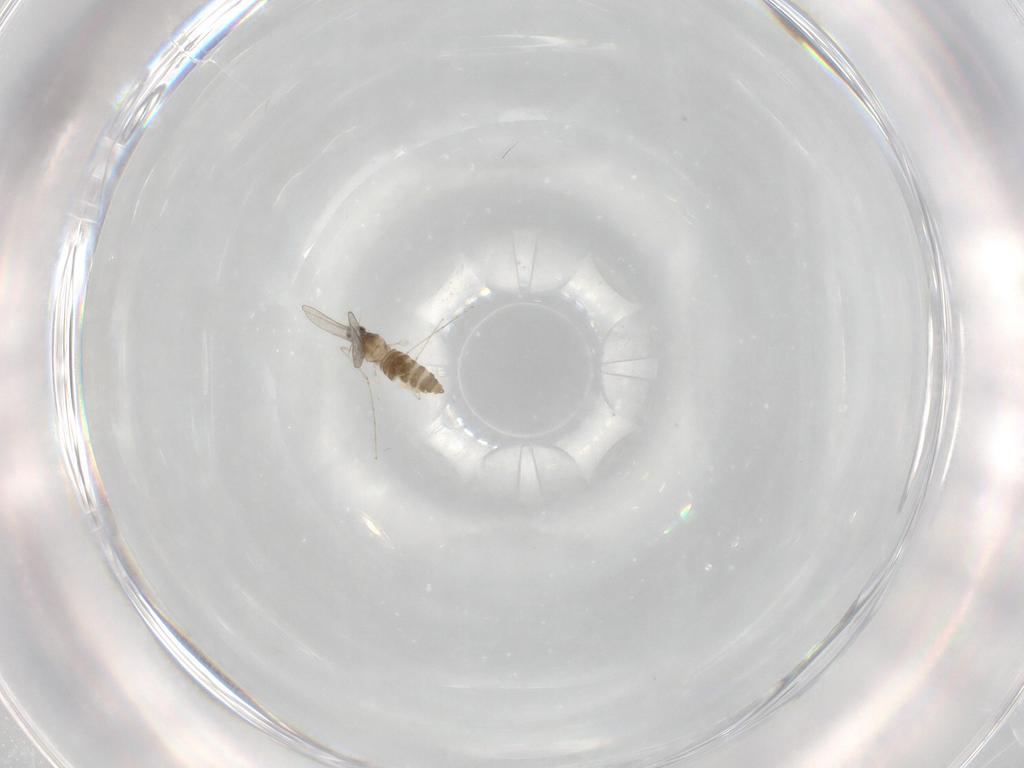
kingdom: Animalia
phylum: Arthropoda
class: Insecta
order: Diptera
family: Cecidomyiidae
